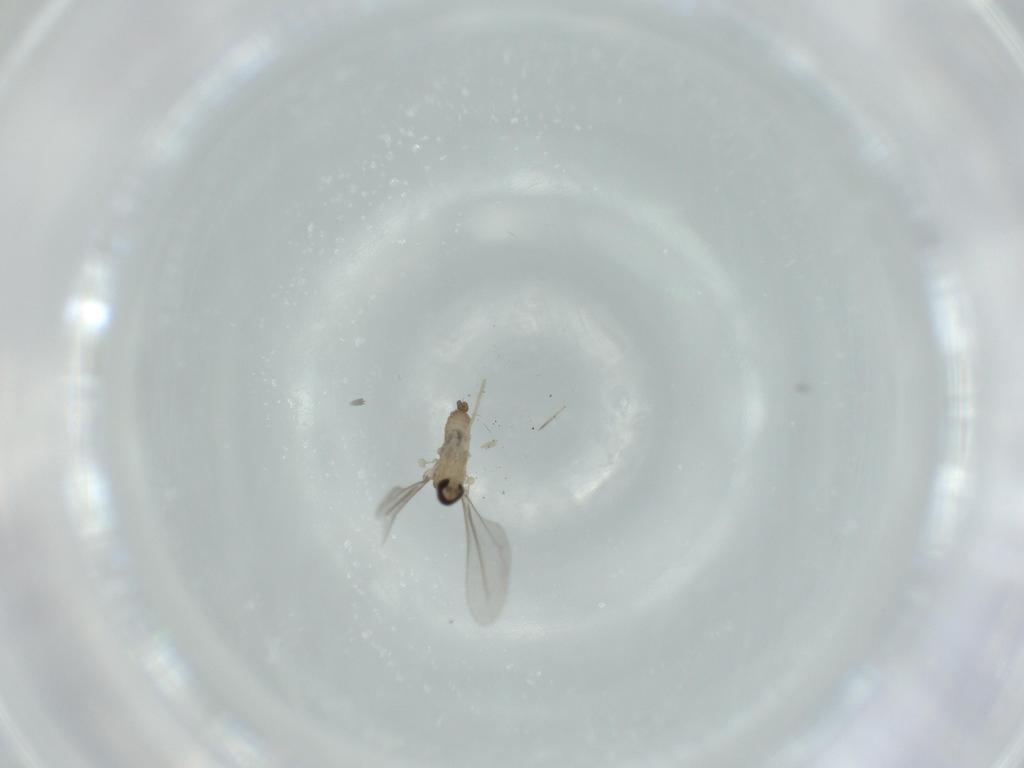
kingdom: Animalia
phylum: Arthropoda
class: Insecta
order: Diptera
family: Cecidomyiidae
